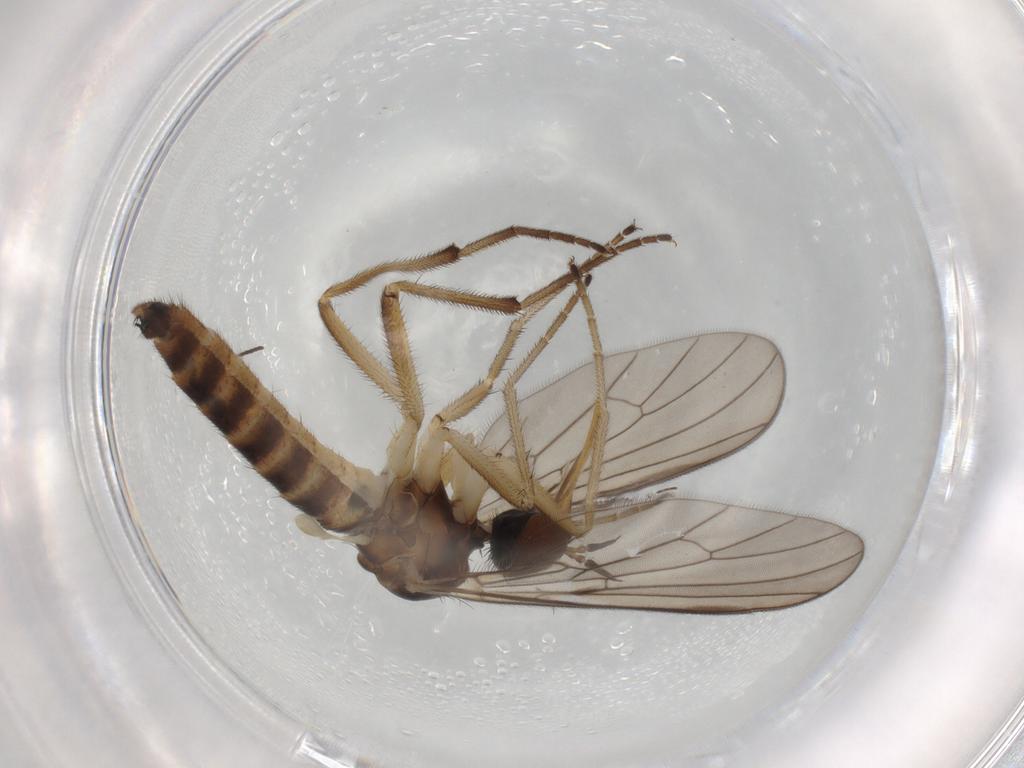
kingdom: Animalia
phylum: Arthropoda
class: Insecta
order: Diptera
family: Empididae
